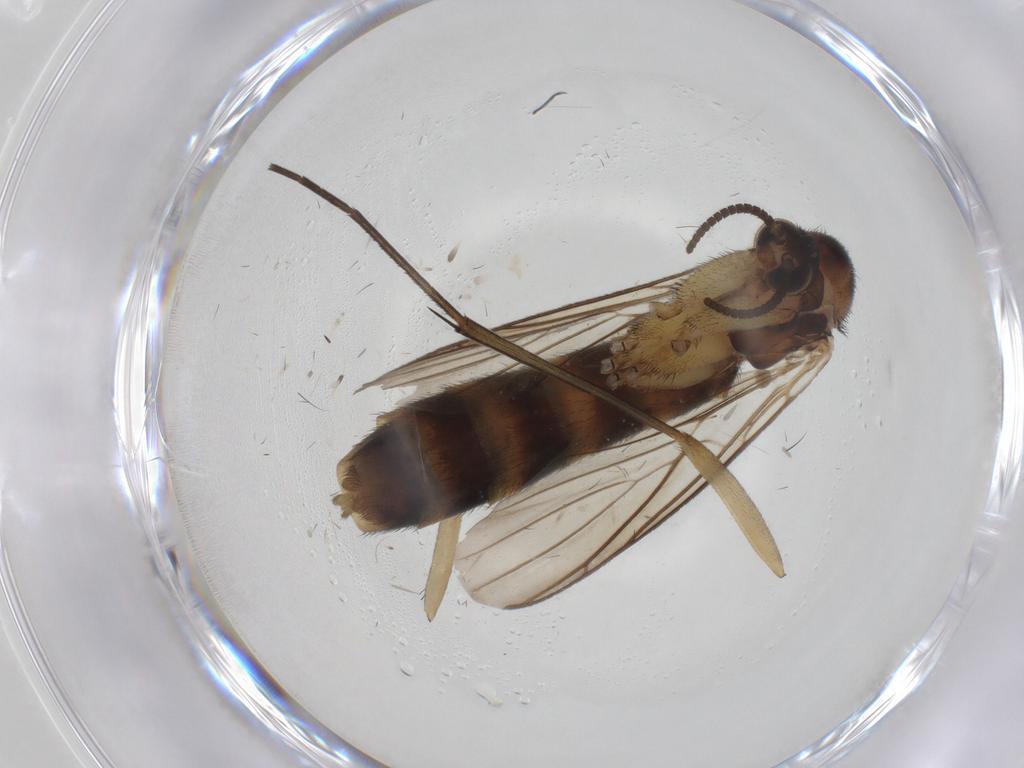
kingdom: Animalia
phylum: Arthropoda
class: Insecta
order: Diptera
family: Keroplatidae
